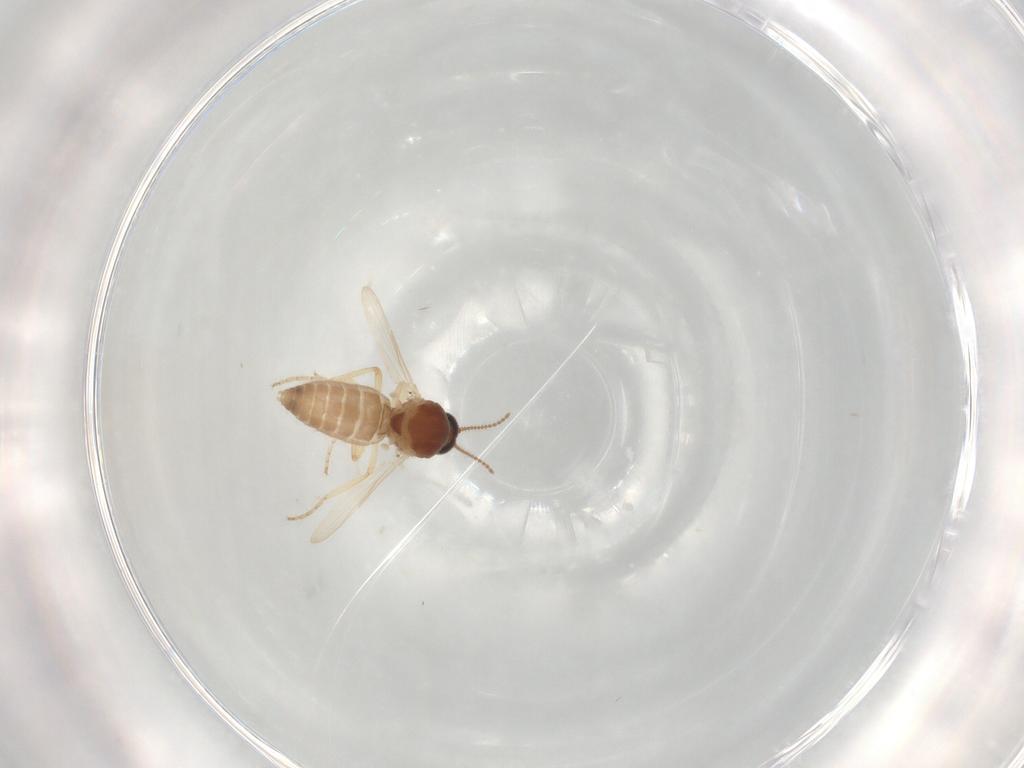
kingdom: Animalia
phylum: Arthropoda
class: Insecta
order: Diptera
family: Ceratopogonidae
